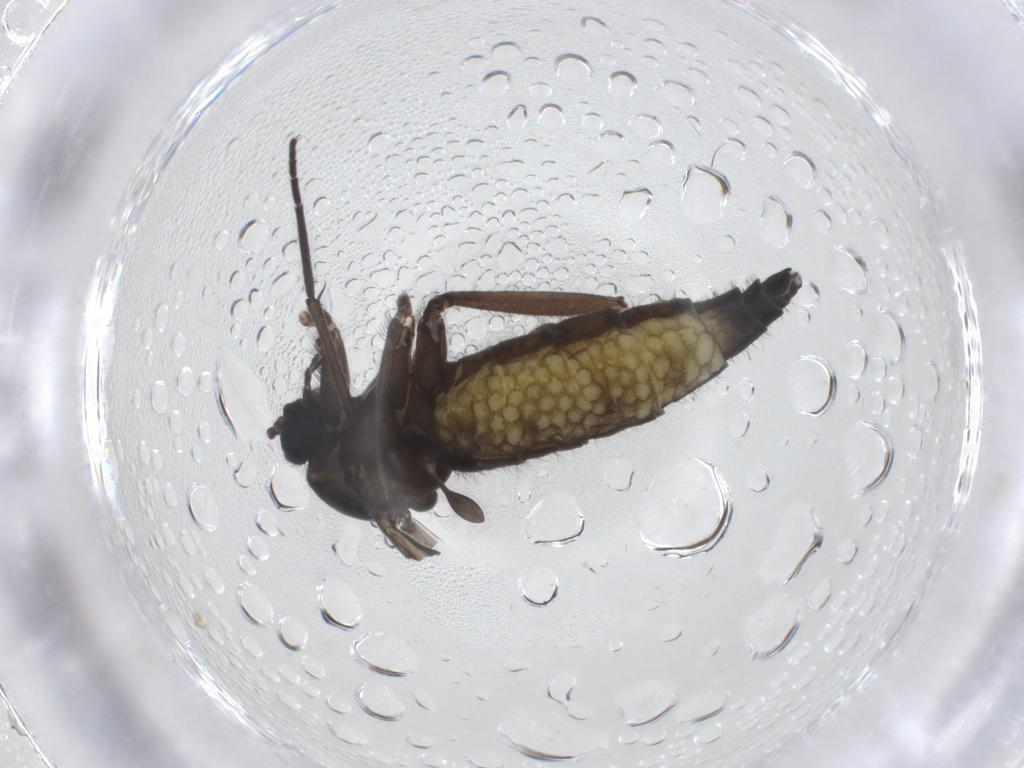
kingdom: Animalia
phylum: Arthropoda
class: Insecta
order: Diptera
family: Sciaridae
